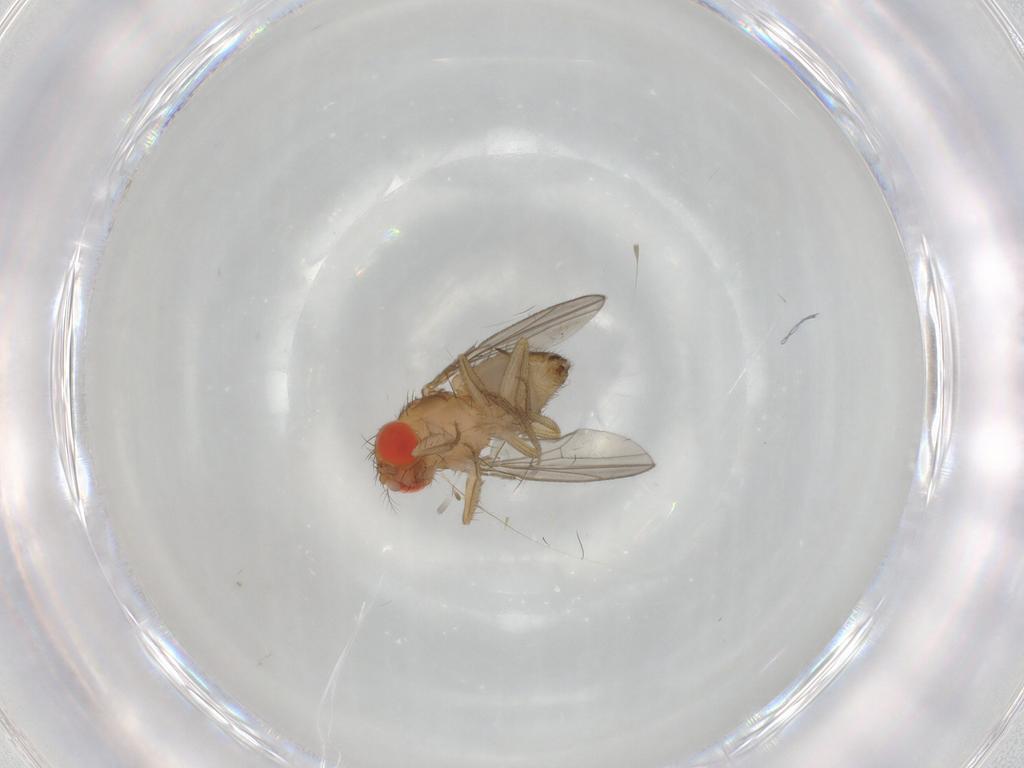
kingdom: Animalia
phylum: Arthropoda
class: Insecta
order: Diptera
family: Drosophilidae
